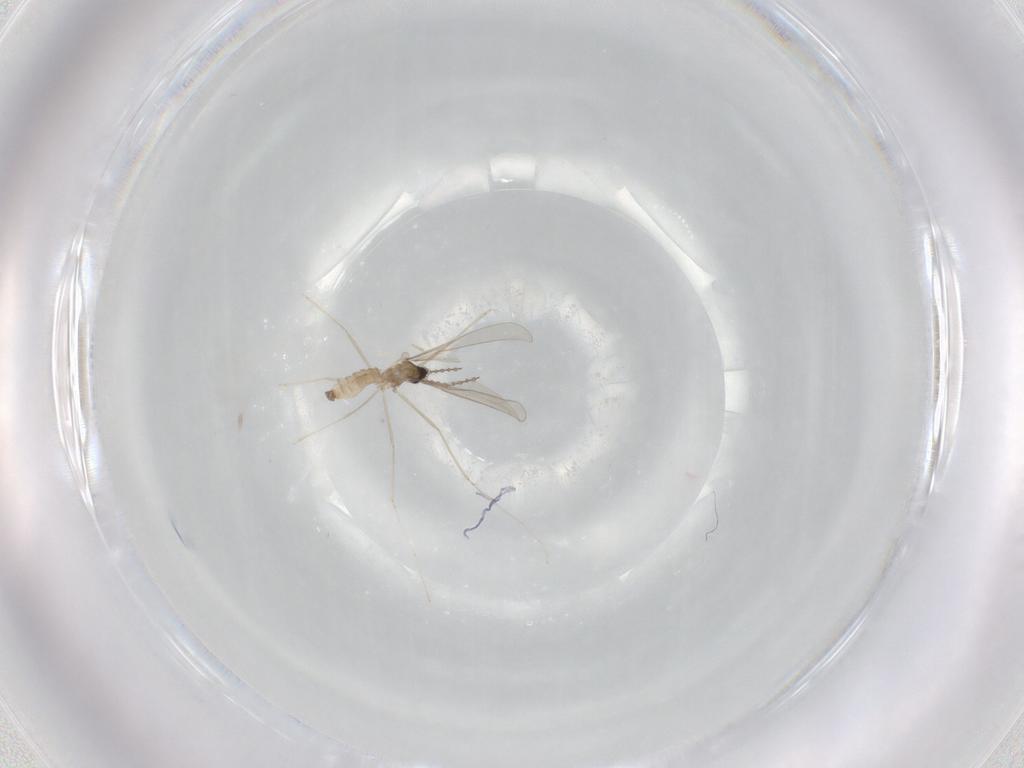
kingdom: Animalia
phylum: Arthropoda
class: Insecta
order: Diptera
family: Cecidomyiidae
